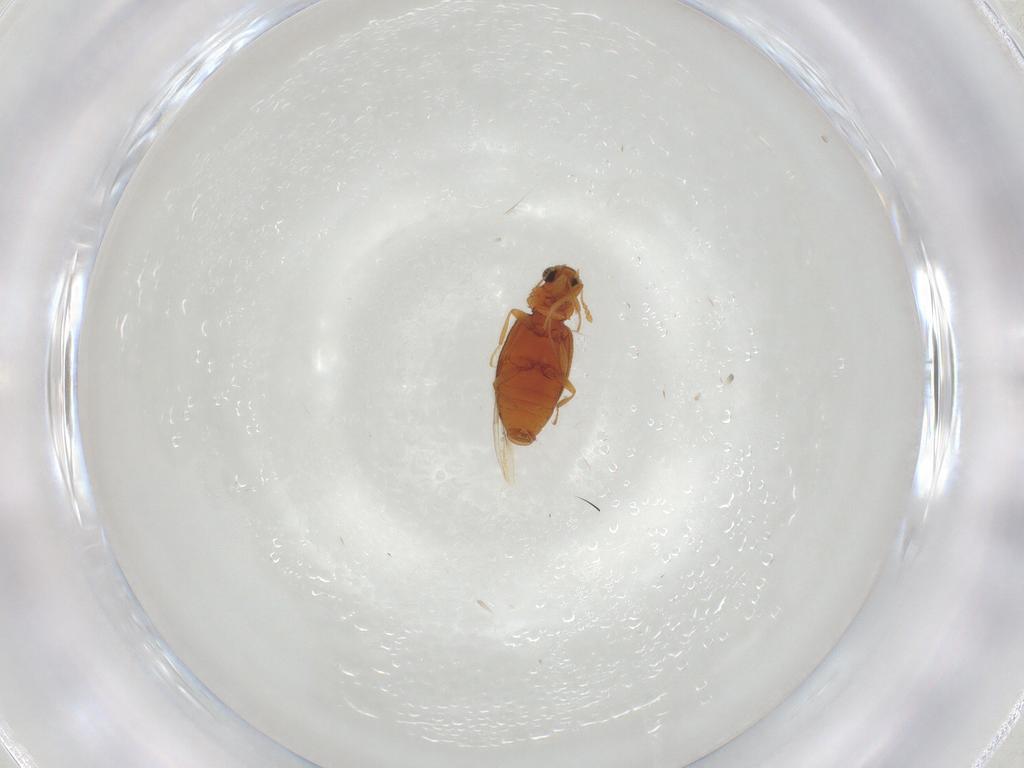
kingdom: Animalia
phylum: Arthropoda
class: Insecta
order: Coleoptera
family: Latridiidae
